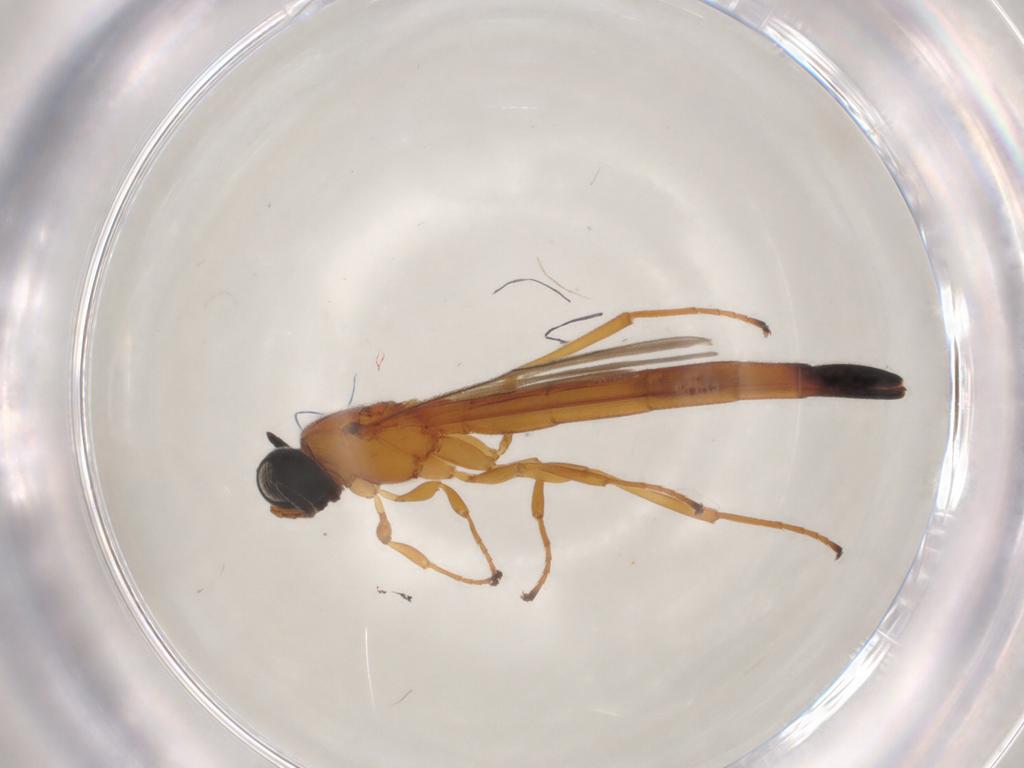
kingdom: Animalia
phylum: Arthropoda
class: Insecta
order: Hymenoptera
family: Scelionidae
